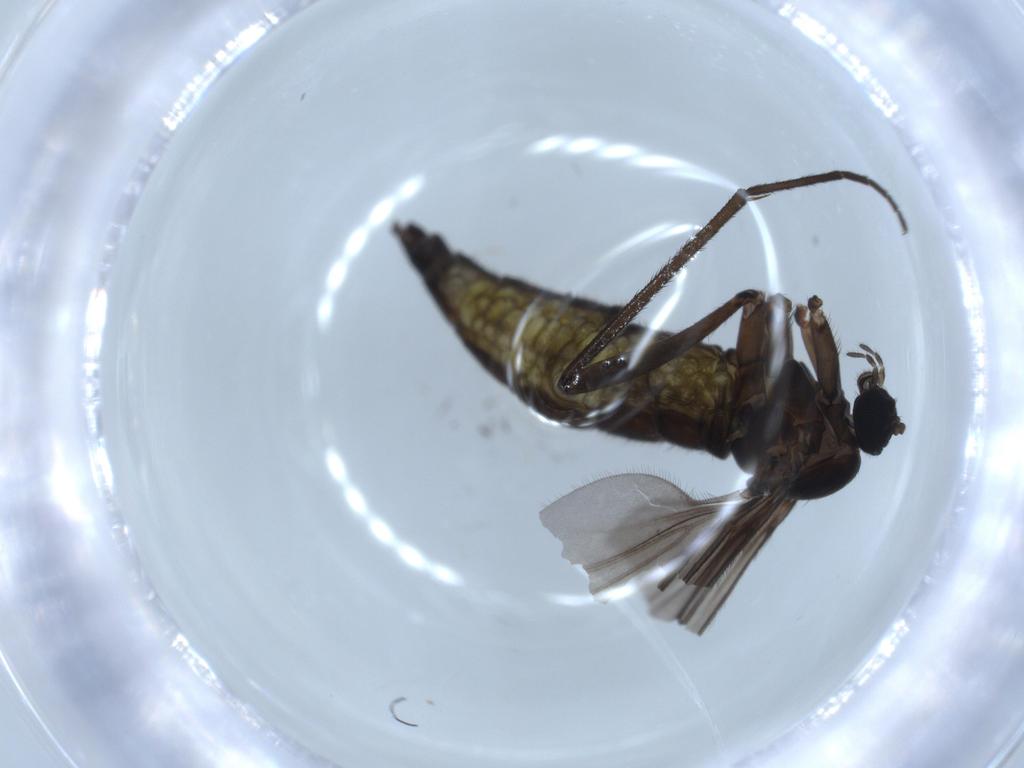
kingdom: Animalia
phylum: Arthropoda
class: Insecta
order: Diptera
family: Sciaridae
